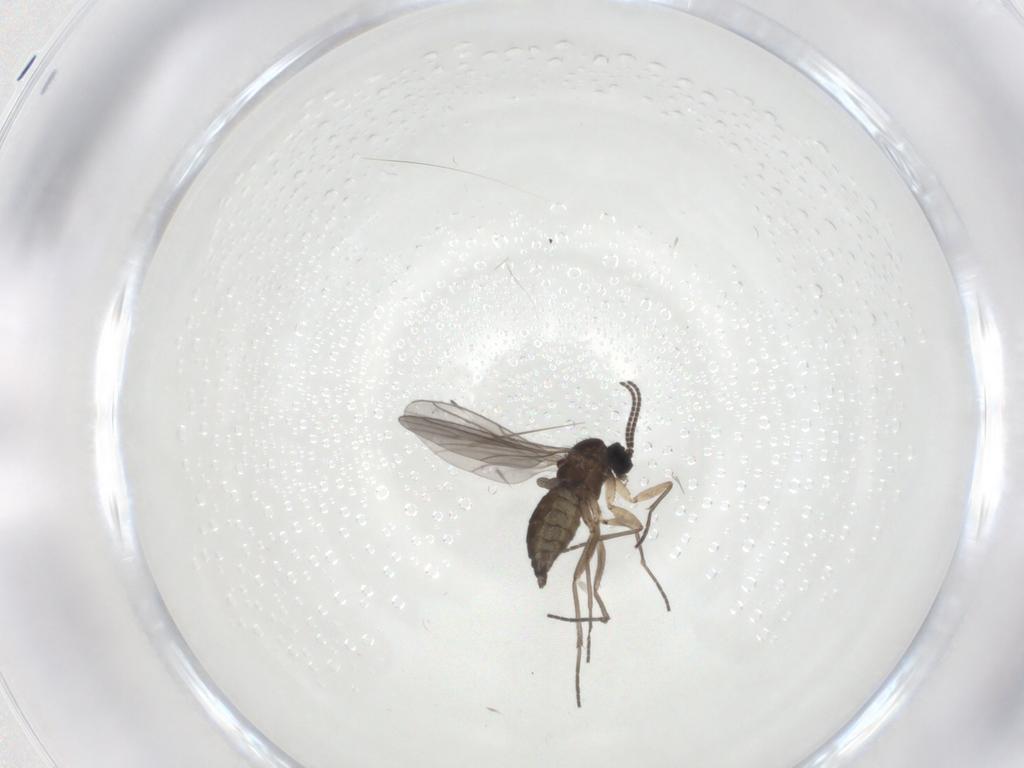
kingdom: Animalia
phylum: Arthropoda
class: Insecta
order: Diptera
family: Sciaridae
